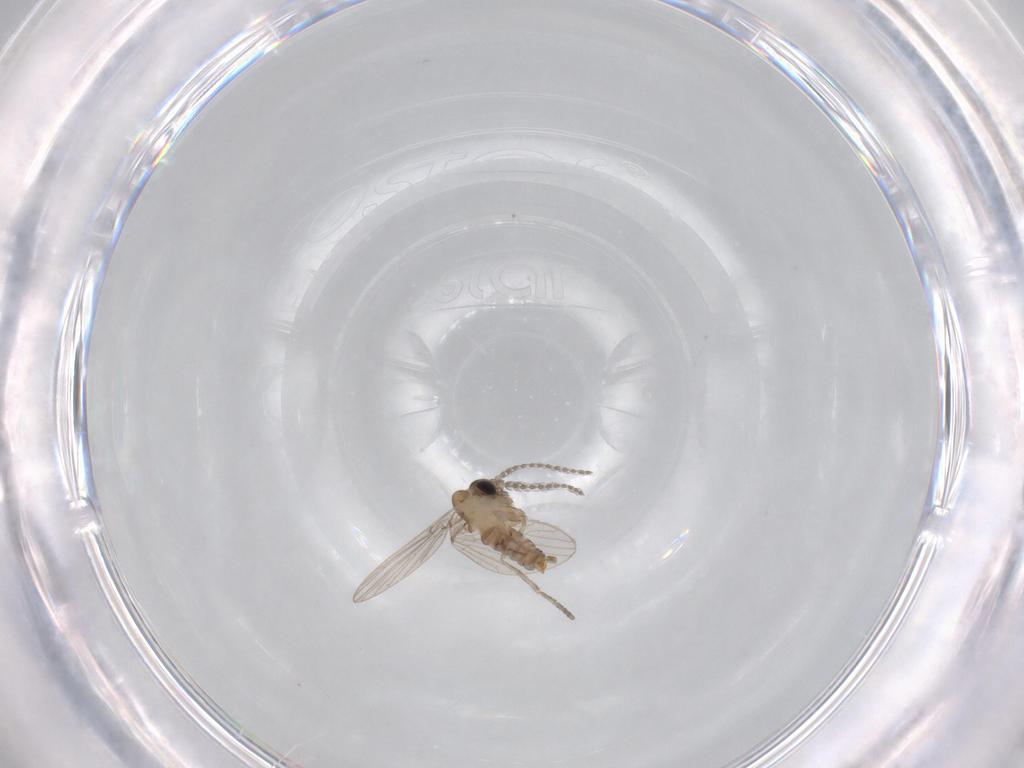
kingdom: Animalia
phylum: Arthropoda
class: Insecta
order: Diptera
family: Psychodidae
